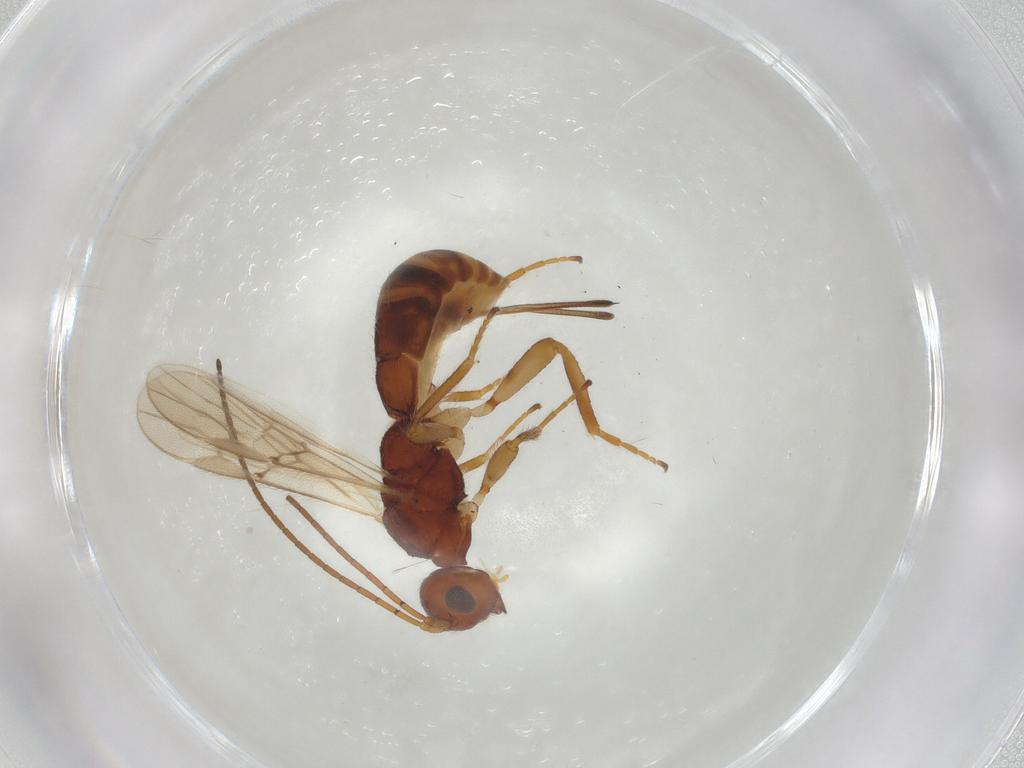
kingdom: Animalia
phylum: Arthropoda
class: Insecta
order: Hymenoptera
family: Braconidae
